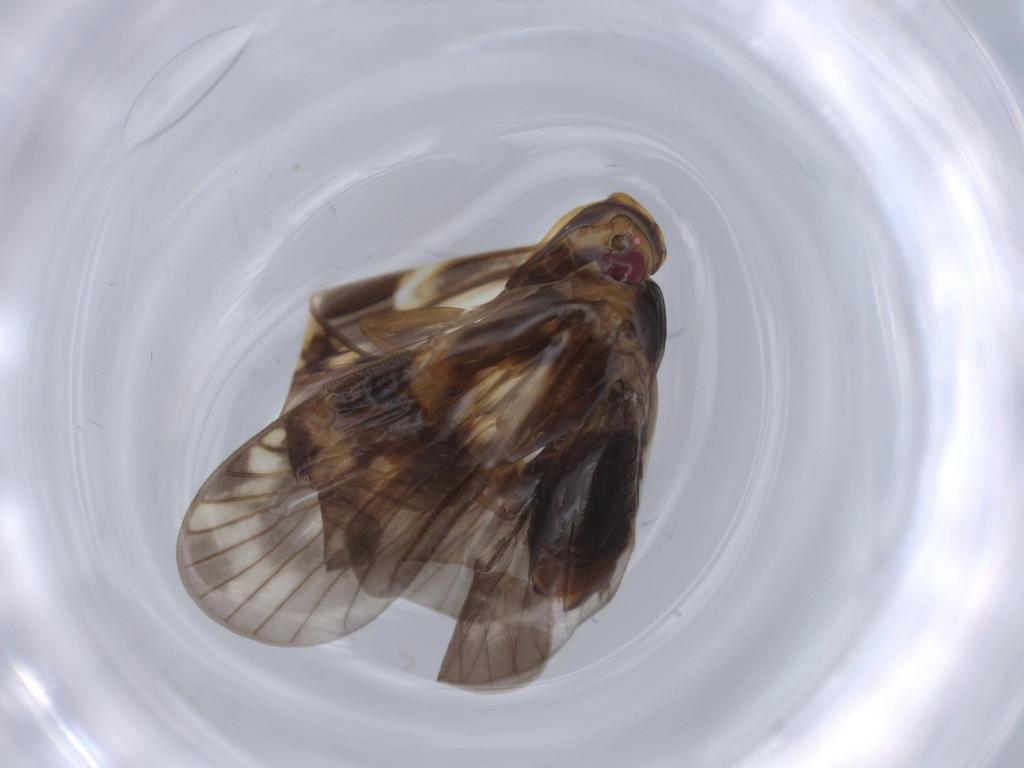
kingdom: Animalia
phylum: Arthropoda
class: Insecta
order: Hemiptera
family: Cixiidae
